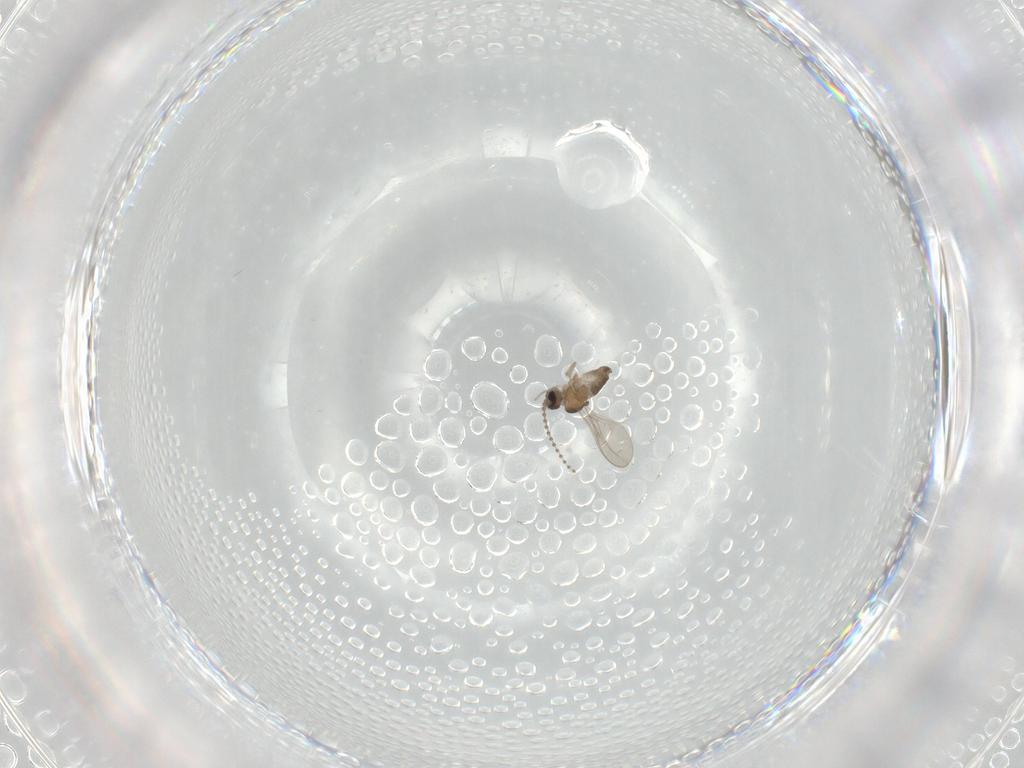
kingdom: Animalia
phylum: Arthropoda
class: Insecta
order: Diptera
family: Cecidomyiidae
